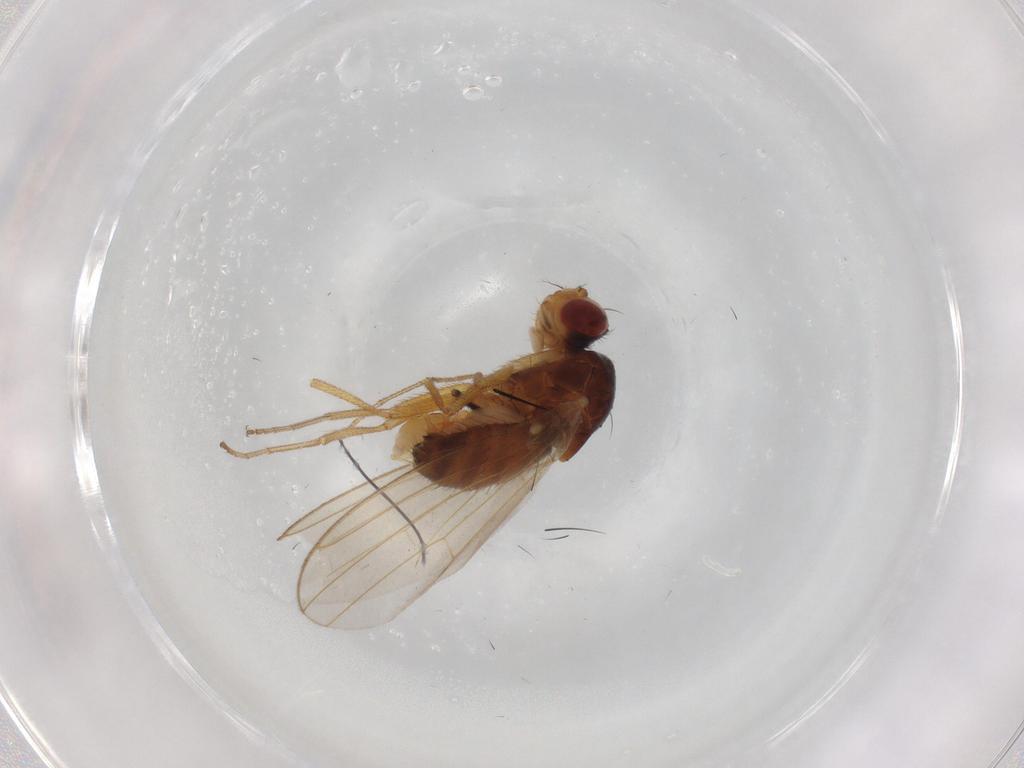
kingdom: Animalia
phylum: Arthropoda
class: Insecta
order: Diptera
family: Drosophilidae
